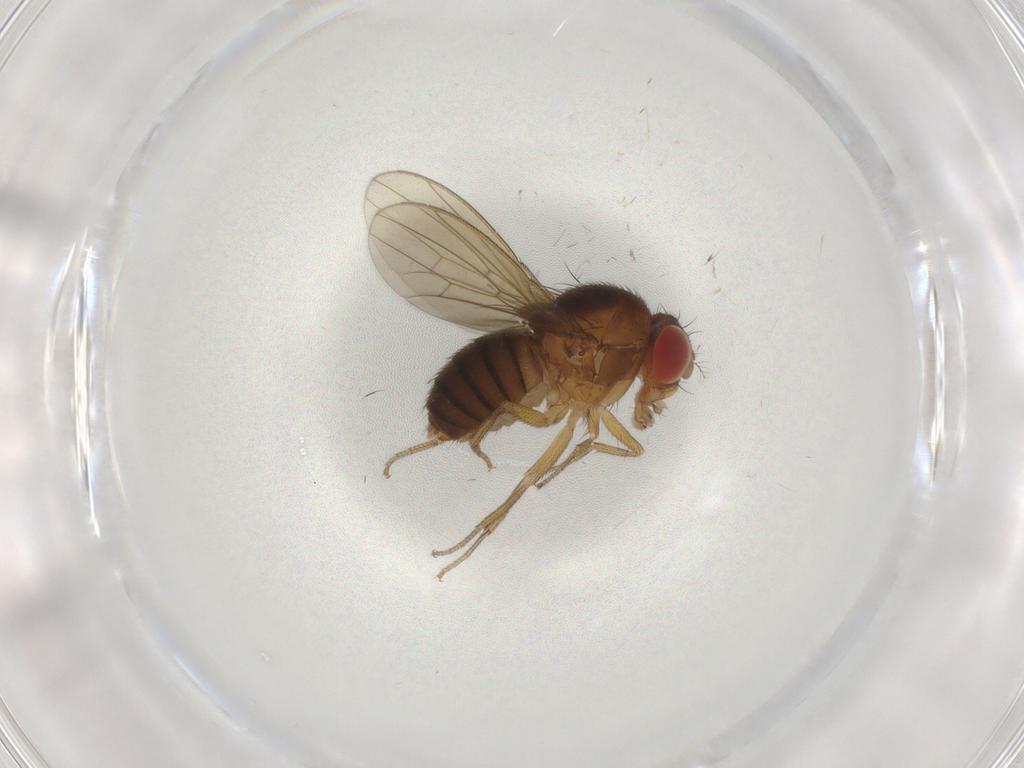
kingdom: Animalia
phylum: Arthropoda
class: Insecta
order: Diptera
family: Drosophilidae
